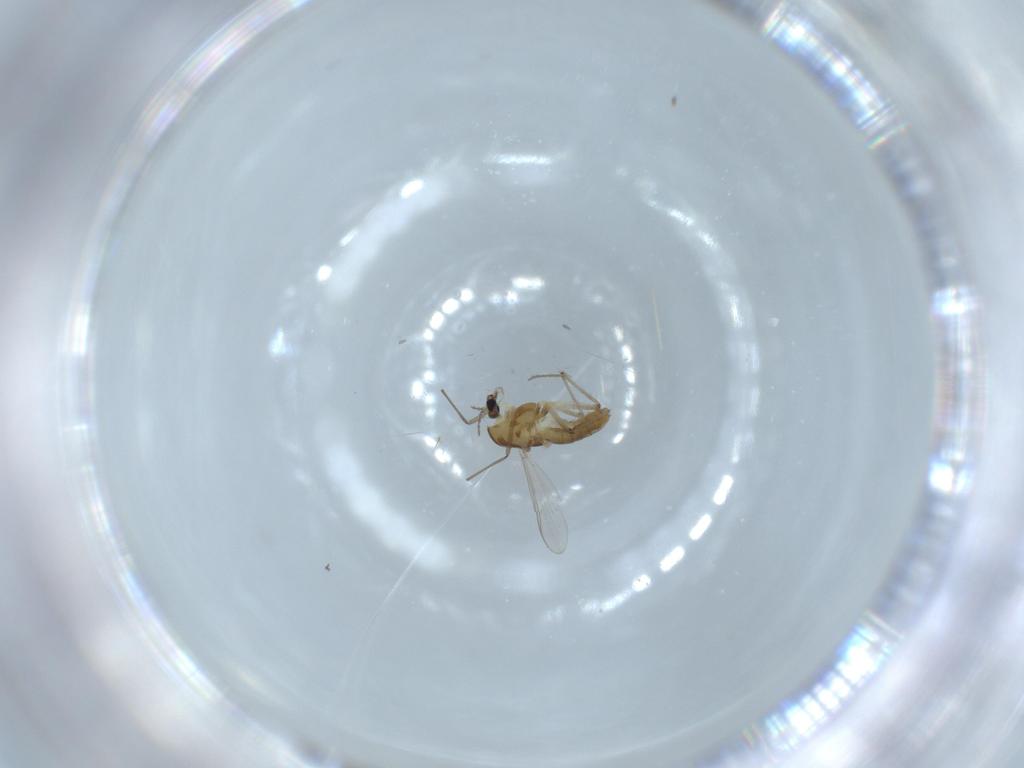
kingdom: Animalia
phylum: Arthropoda
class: Insecta
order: Diptera
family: Chironomidae
